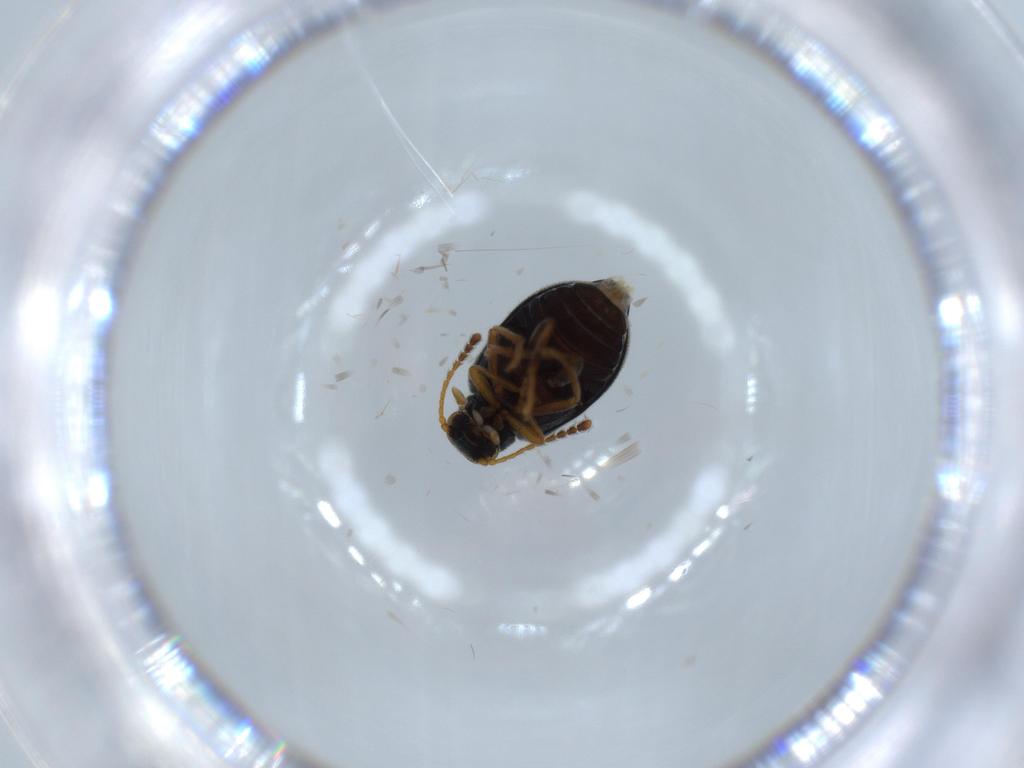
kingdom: Animalia
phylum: Arthropoda
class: Insecta
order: Coleoptera
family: Aderidae
